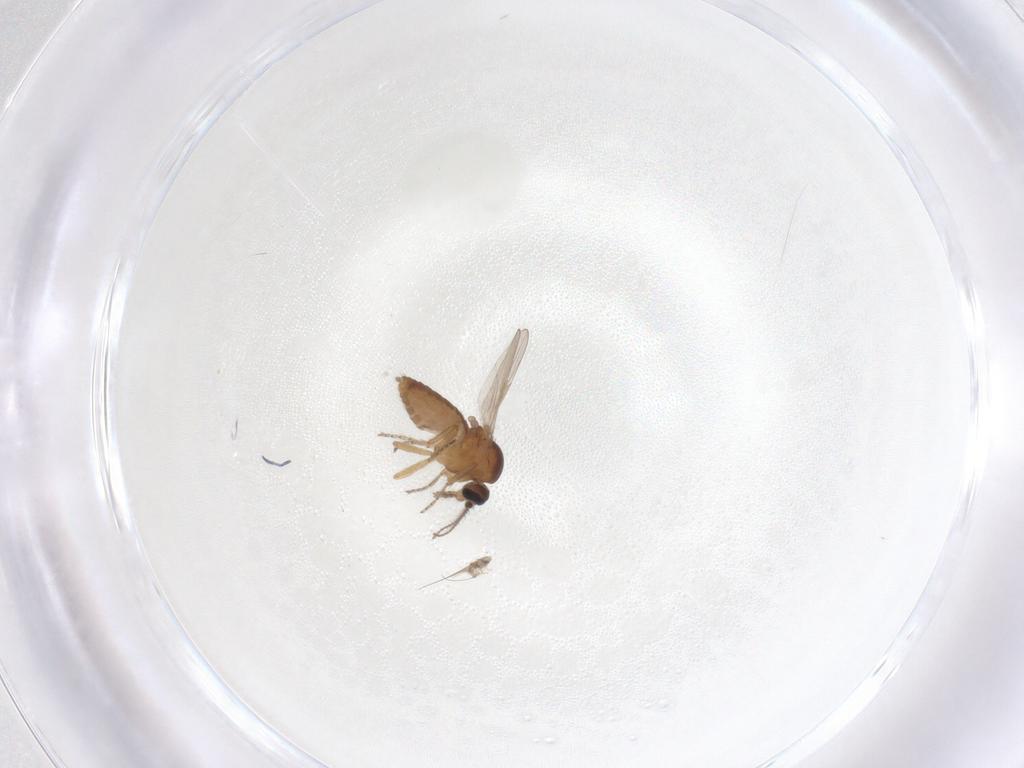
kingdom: Animalia
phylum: Arthropoda
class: Insecta
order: Diptera
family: Ceratopogonidae
